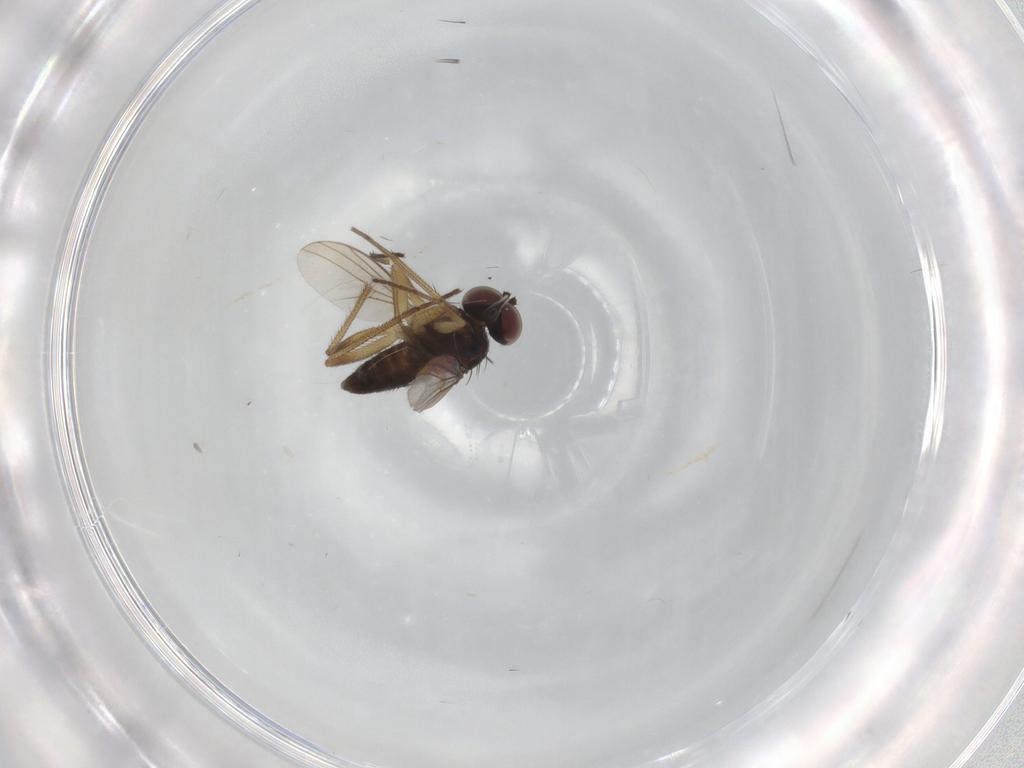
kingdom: Animalia
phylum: Arthropoda
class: Insecta
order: Diptera
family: Dolichopodidae
